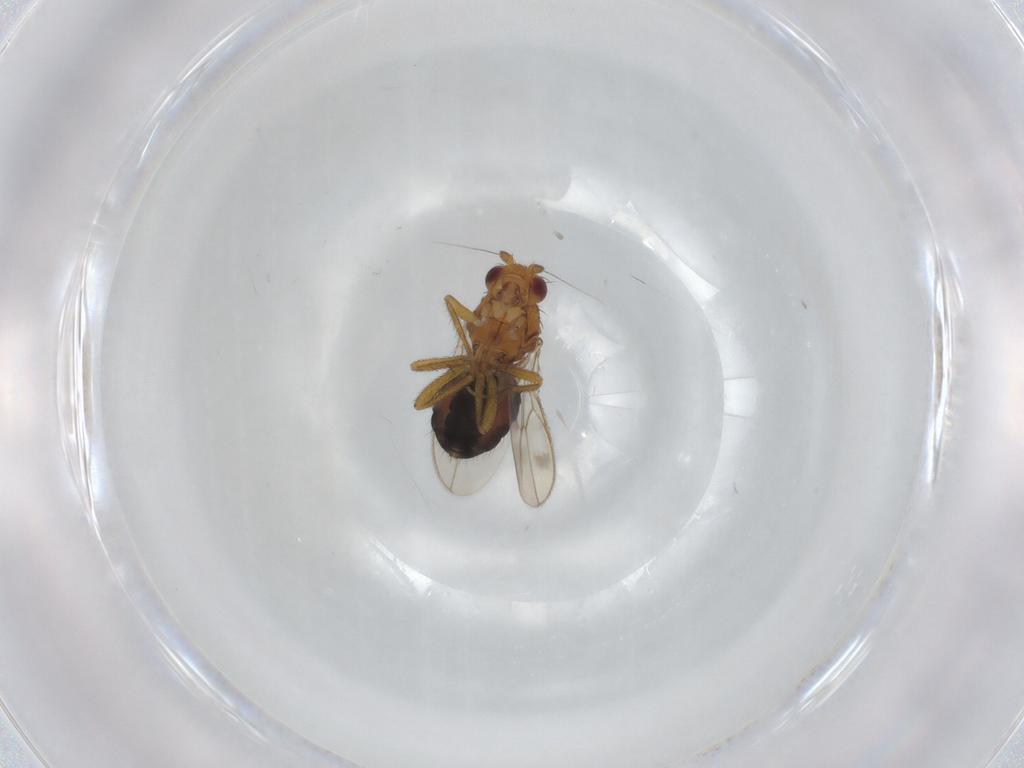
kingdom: Animalia
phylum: Arthropoda
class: Insecta
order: Diptera
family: Sphaeroceridae
